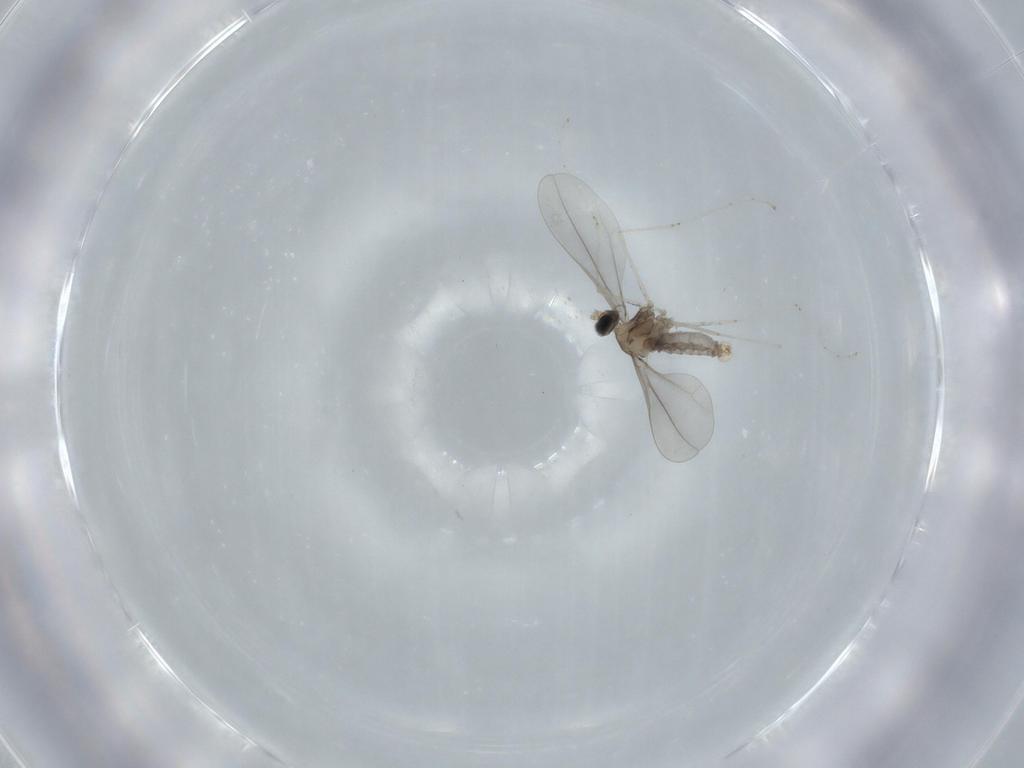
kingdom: Animalia
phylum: Arthropoda
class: Insecta
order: Diptera
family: Cecidomyiidae
